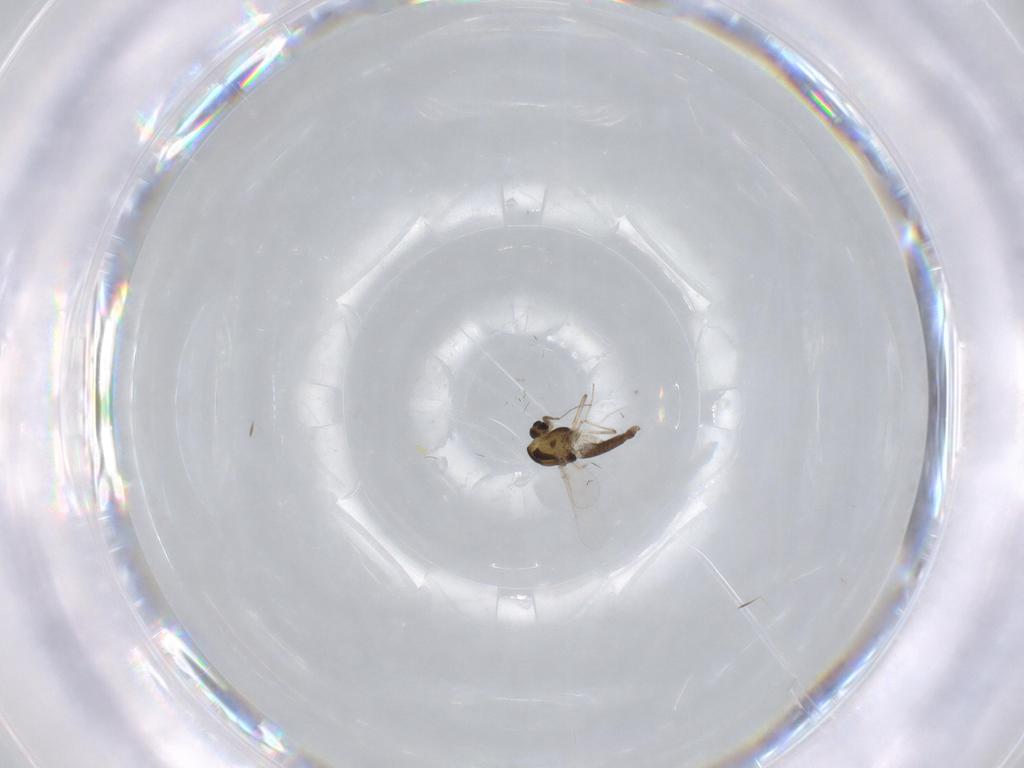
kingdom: Animalia
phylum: Arthropoda
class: Insecta
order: Diptera
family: Chironomidae
